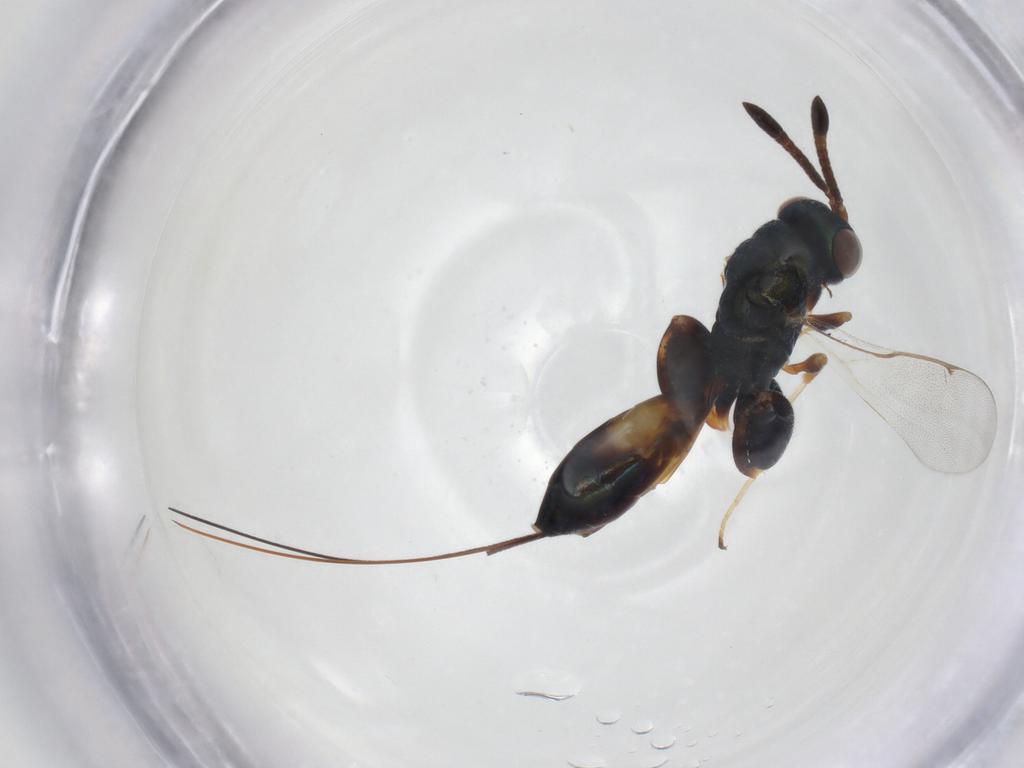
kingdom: Animalia
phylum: Arthropoda
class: Insecta
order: Hymenoptera
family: Torymidae
